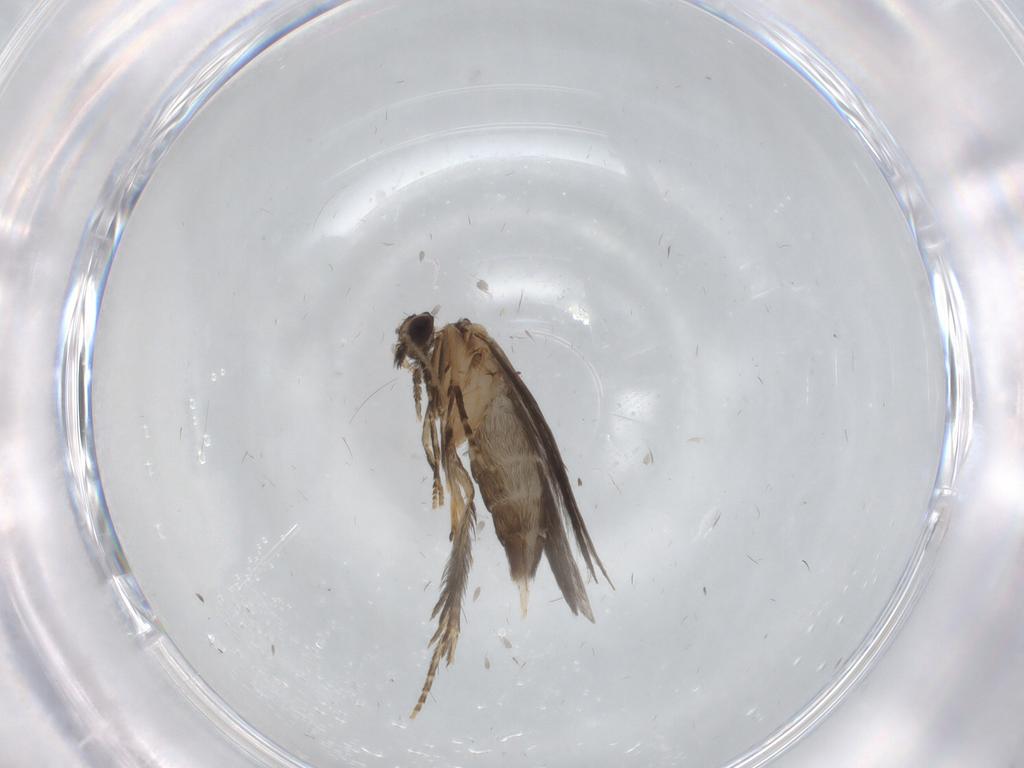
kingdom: Animalia
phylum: Arthropoda
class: Insecta
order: Trichoptera
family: Hydroptilidae
